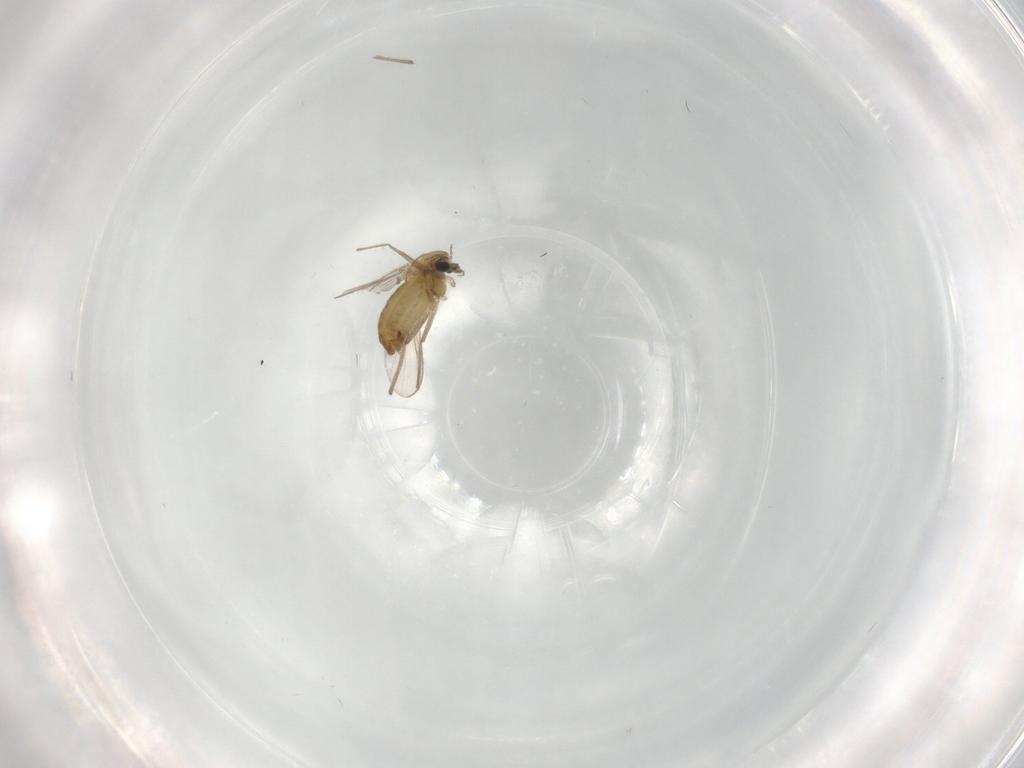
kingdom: Animalia
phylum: Arthropoda
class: Insecta
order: Diptera
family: Chironomidae
